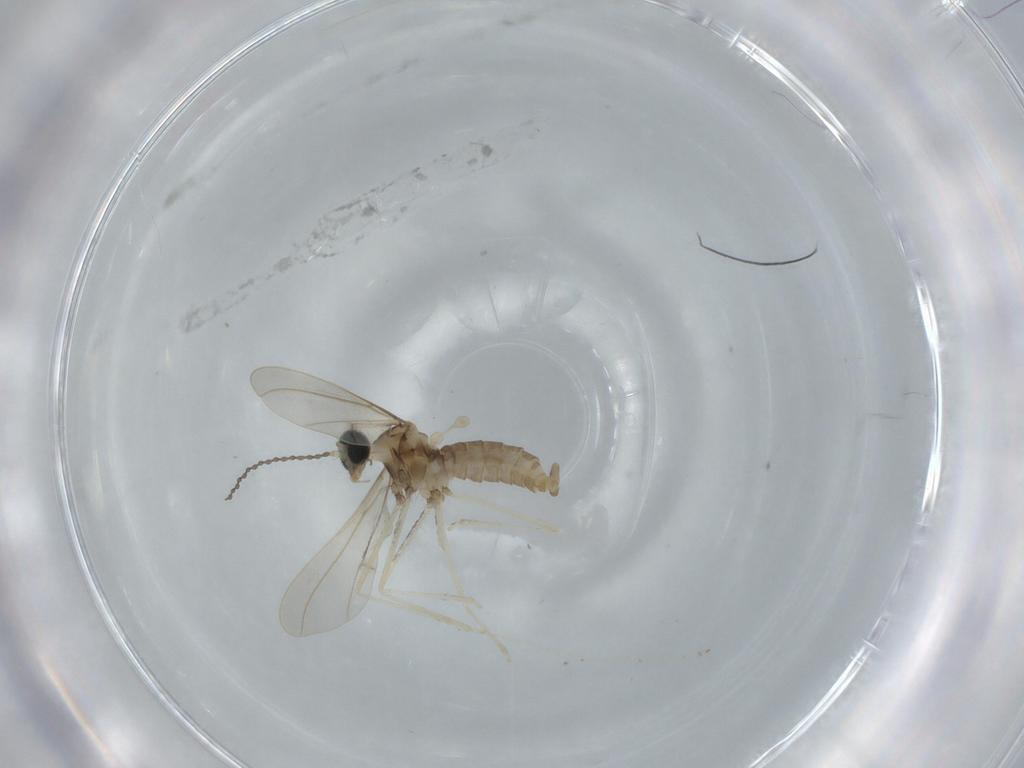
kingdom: Animalia
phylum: Arthropoda
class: Insecta
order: Diptera
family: Cecidomyiidae
